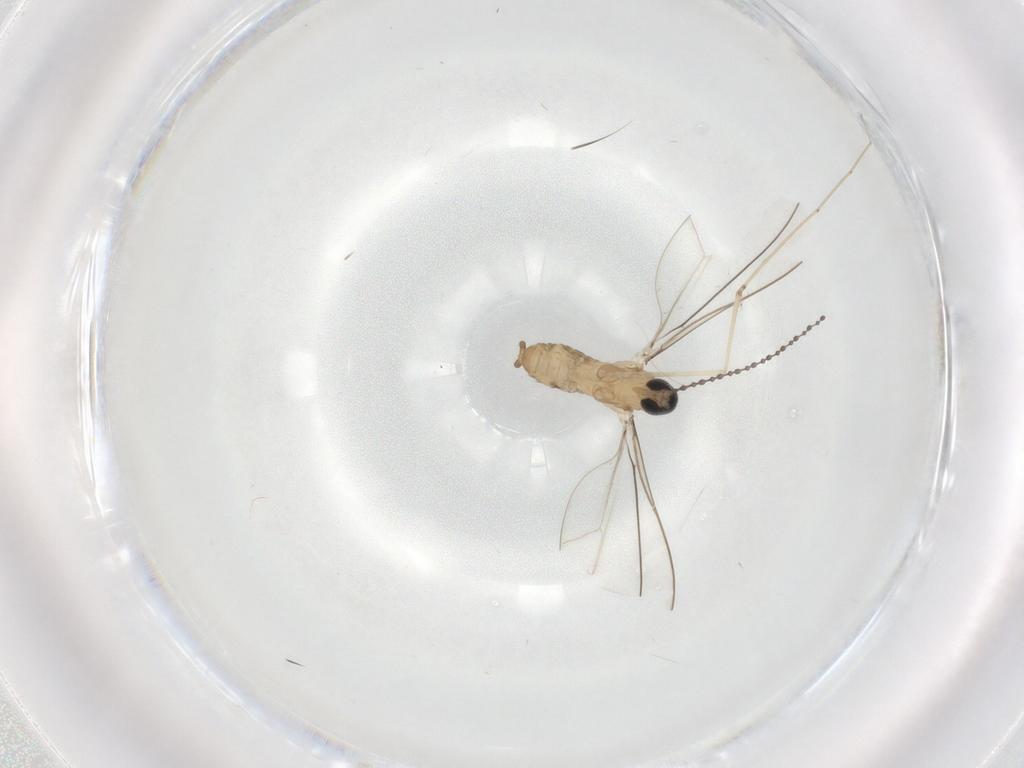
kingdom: Animalia
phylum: Arthropoda
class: Insecta
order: Diptera
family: Cecidomyiidae
